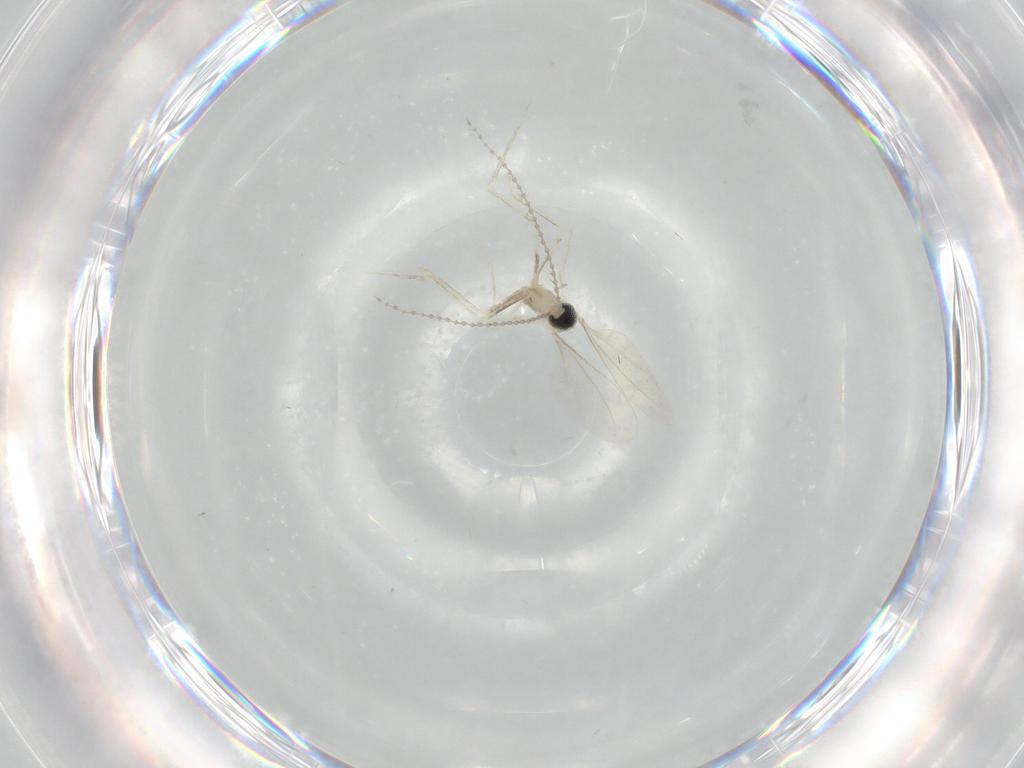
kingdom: Animalia
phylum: Arthropoda
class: Insecta
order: Diptera
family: Cecidomyiidae
